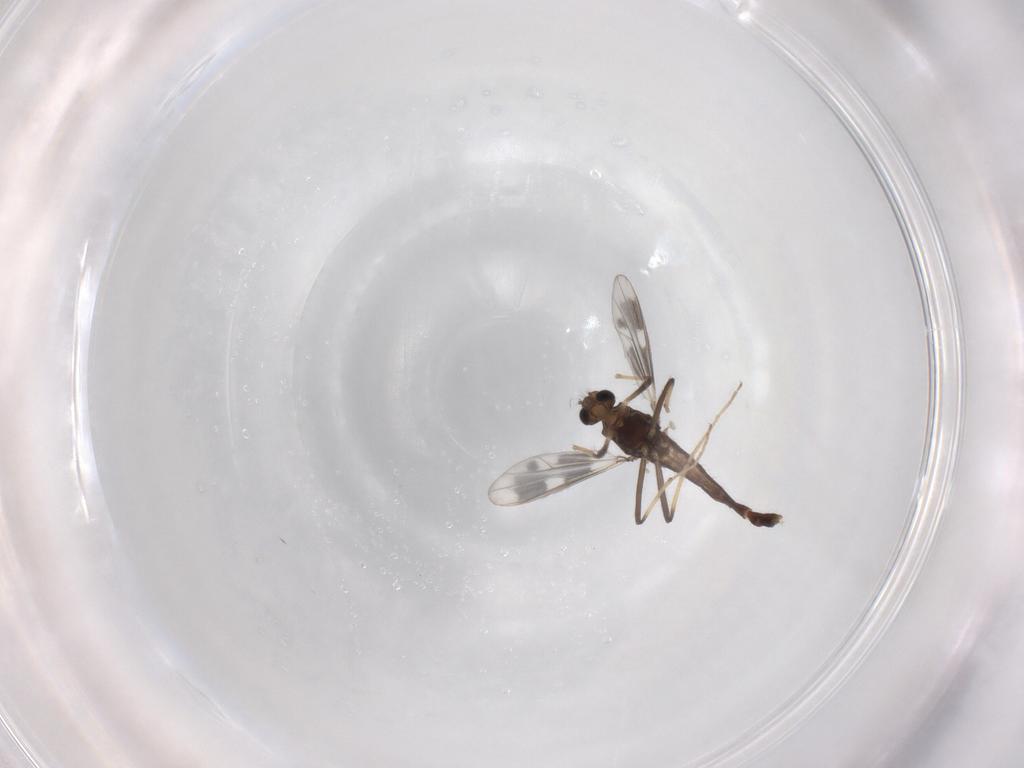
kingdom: Animalia
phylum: Arthropoda
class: Insecta
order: Diptera
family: Chironomidae
